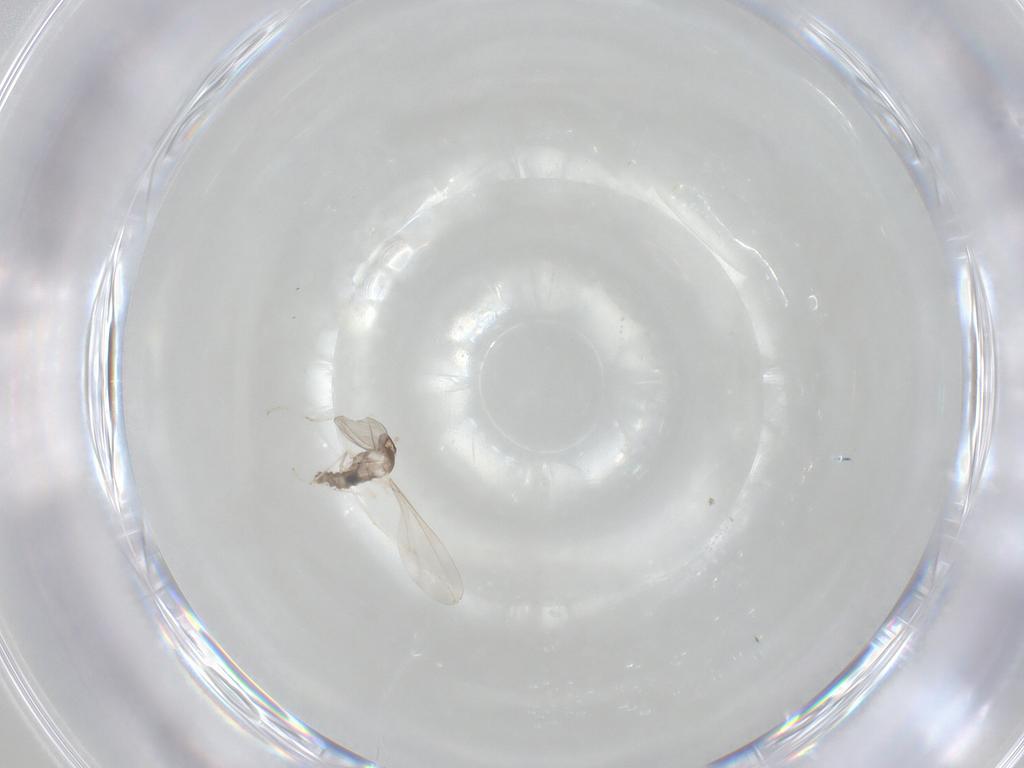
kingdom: Animalia
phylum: Arthropoda
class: Insecta
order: Diptera
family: Cecidomyiidae
